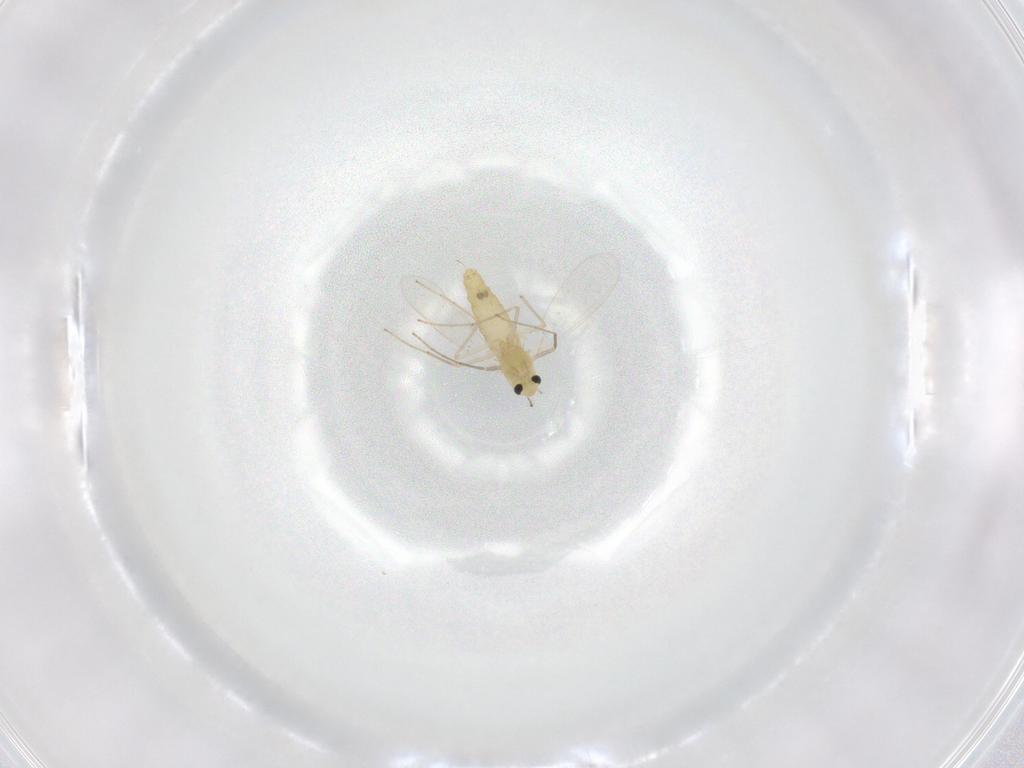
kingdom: Animalia
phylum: Arthropoda
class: Insecta
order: Diptera
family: Chironomidae
